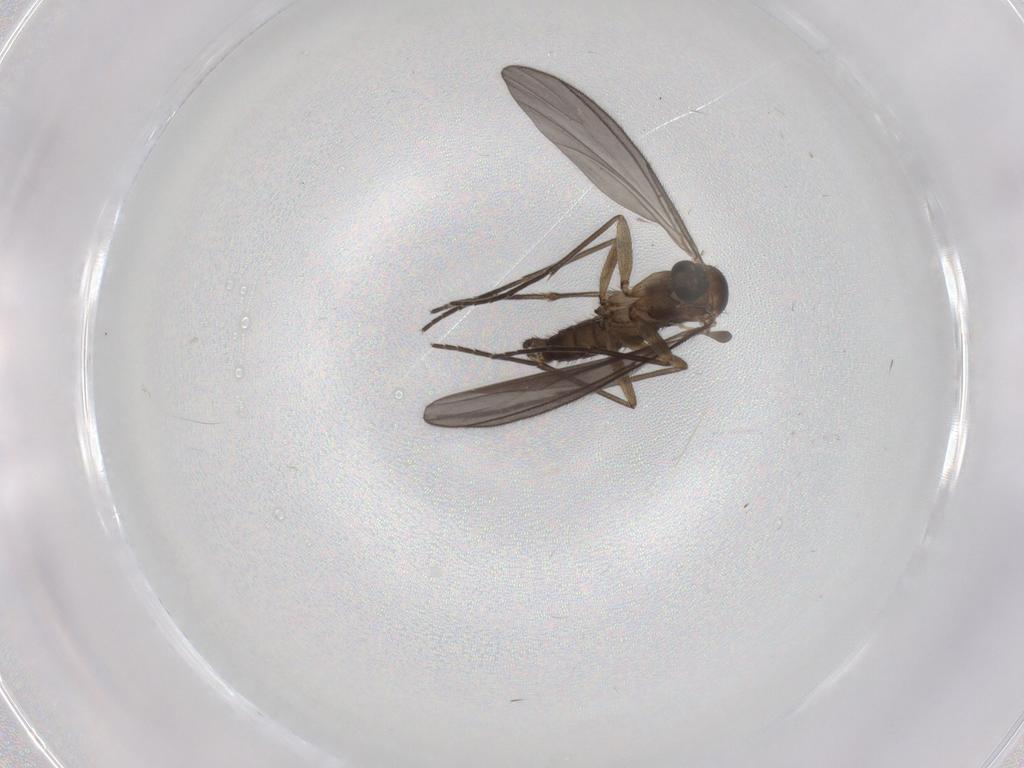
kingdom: Animalia
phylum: Arthropoda
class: Insecta
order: Diptera
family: Sciaridae
